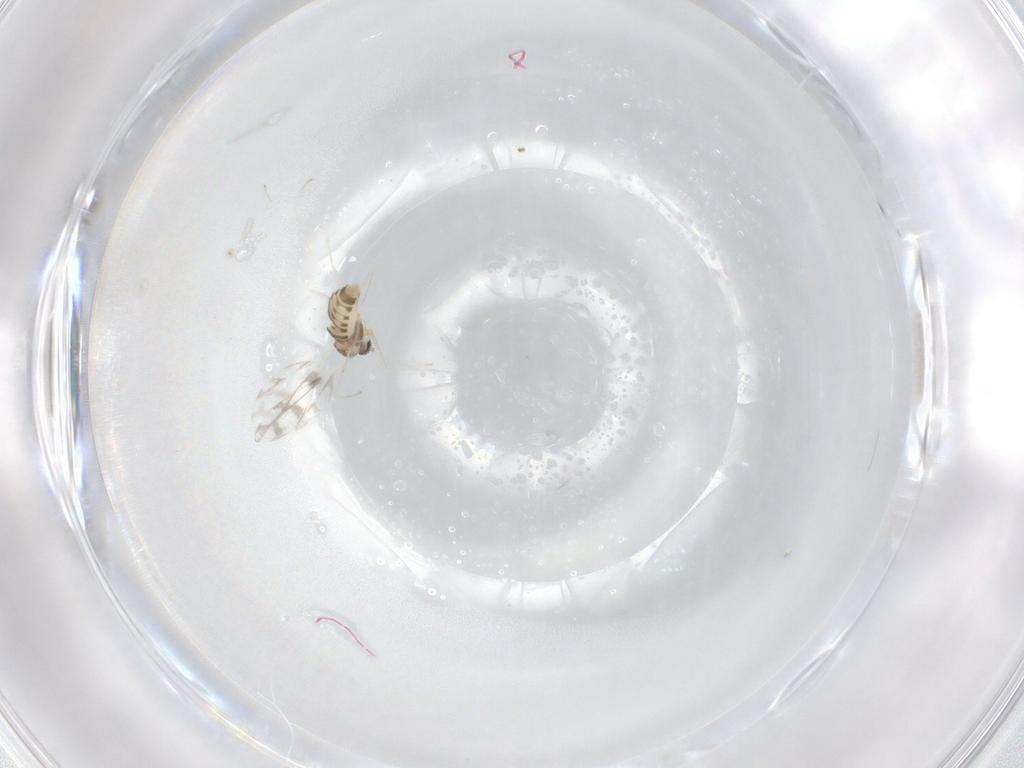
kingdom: Animalia
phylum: Arthropoda
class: Insecta
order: Diptera
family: Cecidomyiidae
